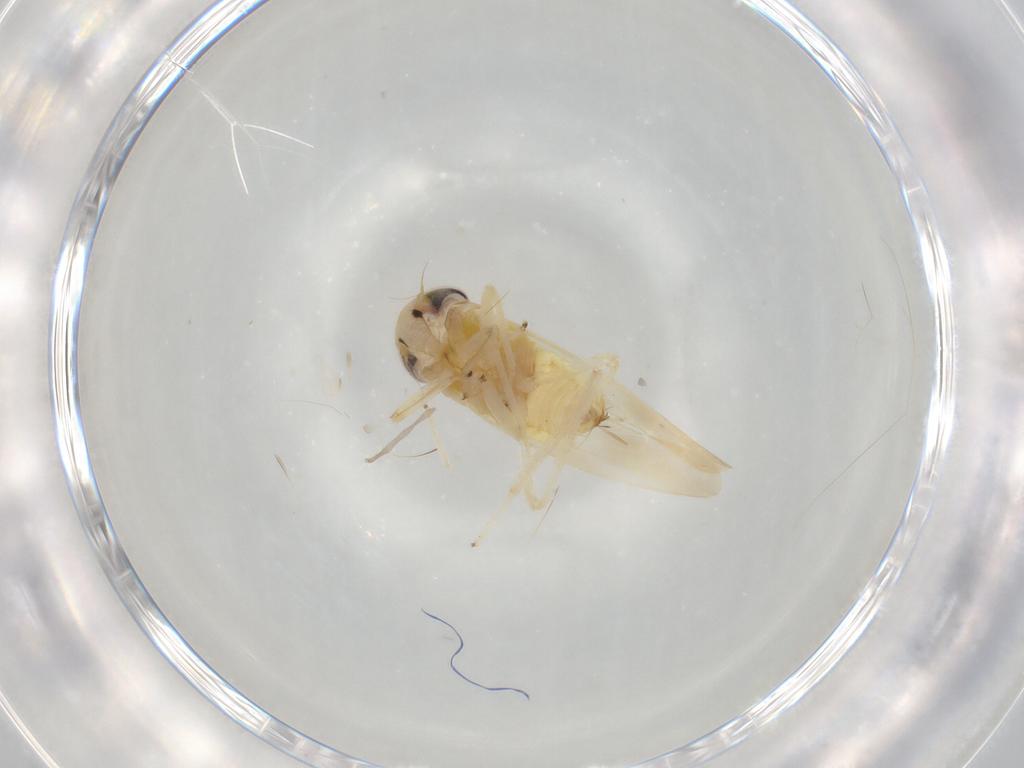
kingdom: Animalia
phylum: Arthropoda
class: Insecta
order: Hemiptera
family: Cicadellidae
